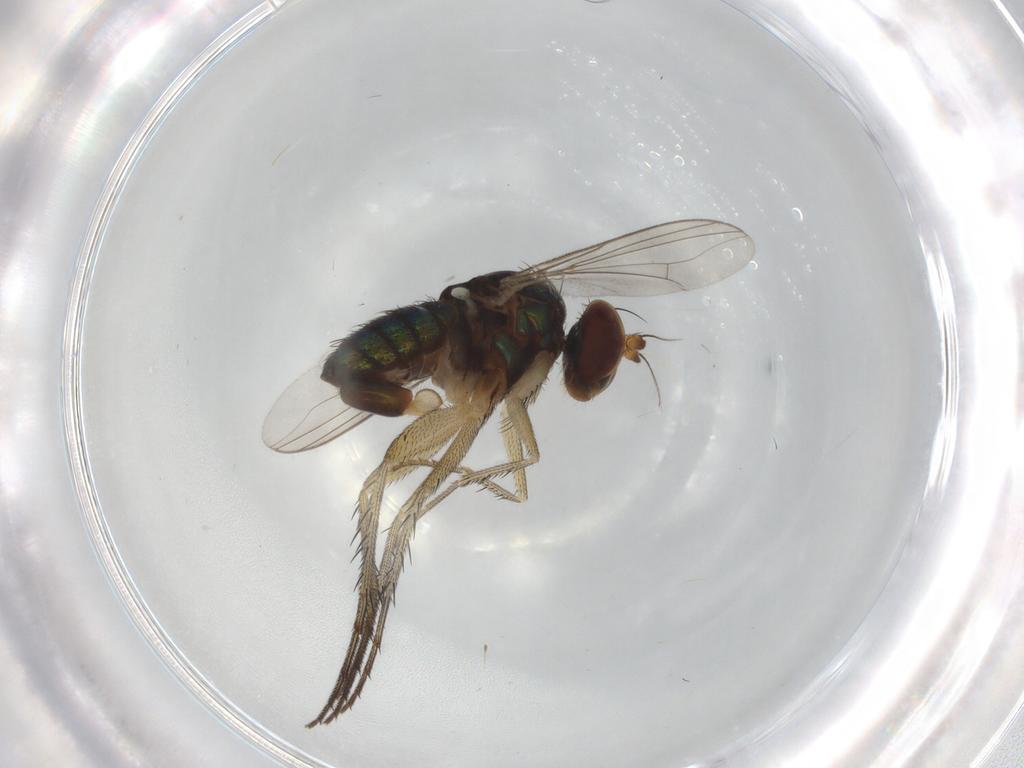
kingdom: Animalia
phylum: Arthropoda
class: Insecta
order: Diptera
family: Dolichopodidae
